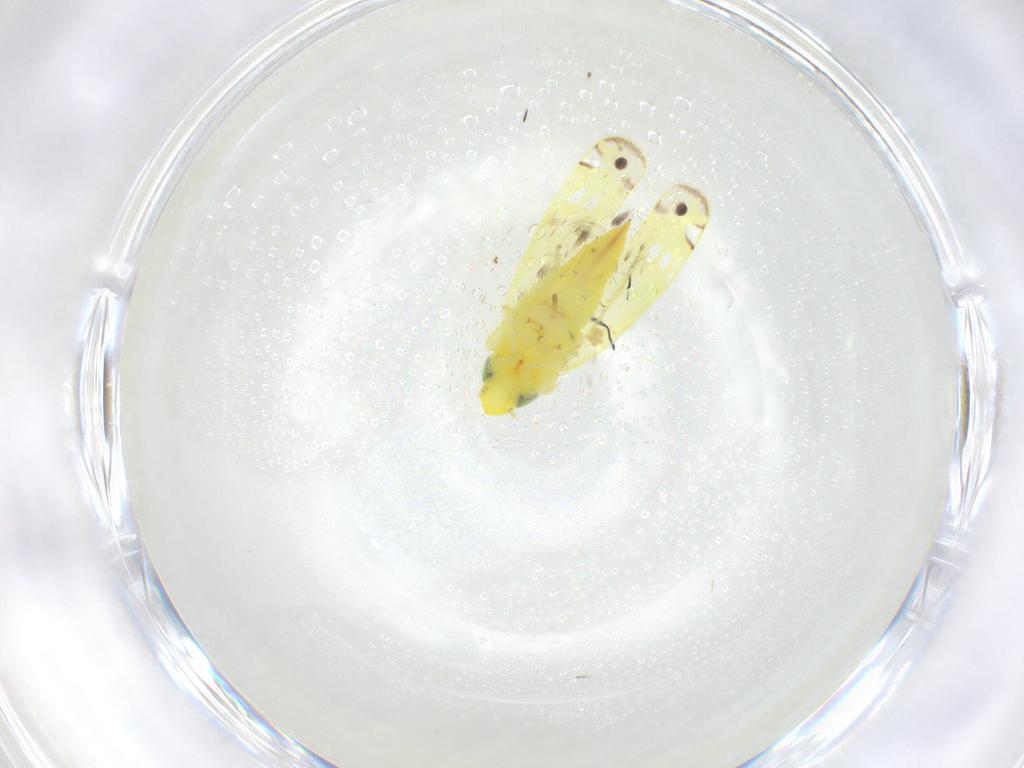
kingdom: Animalia
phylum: Arthropoda
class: Insecta
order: Hemiptera
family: Cicadellidae
